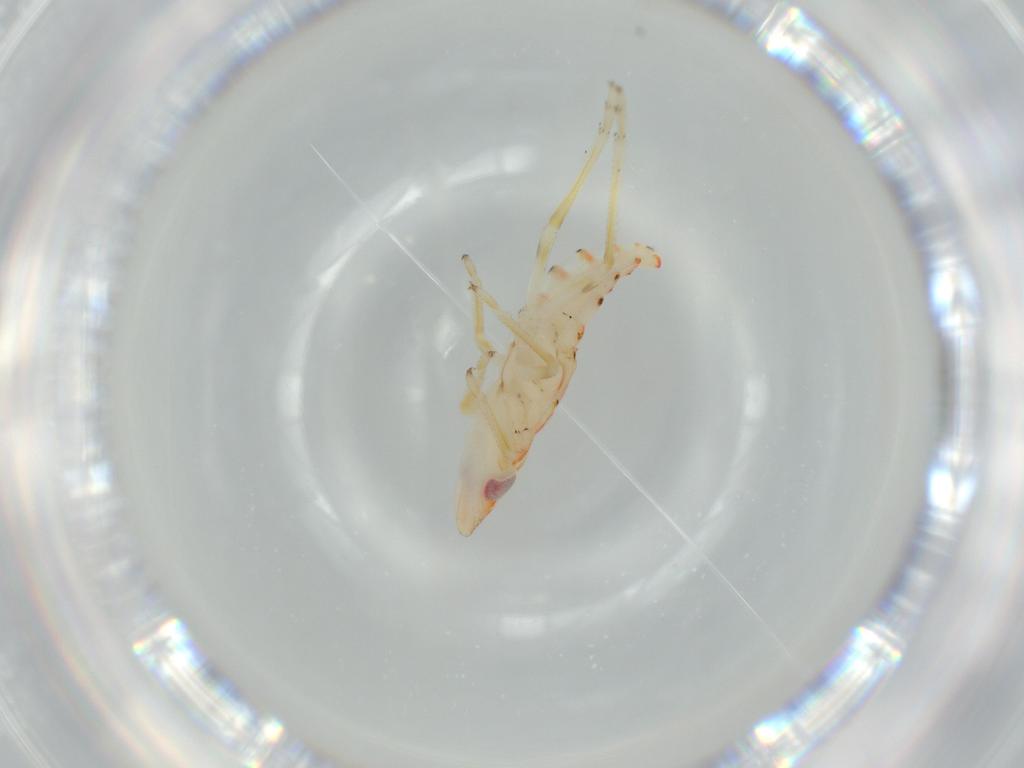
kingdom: Animalia
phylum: Arthropoda
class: Insecta
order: Hemiptera
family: Tropiduchidae
